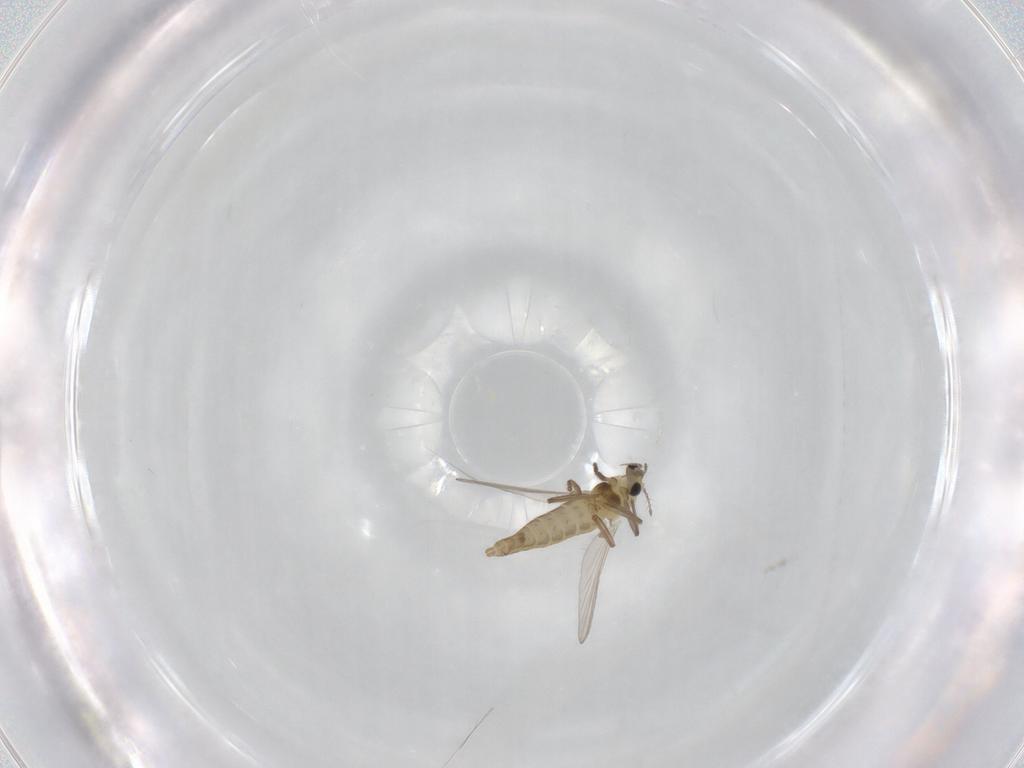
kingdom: Animalia
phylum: Arthropoda
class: Insecta
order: Diptera
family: Chironomidae
